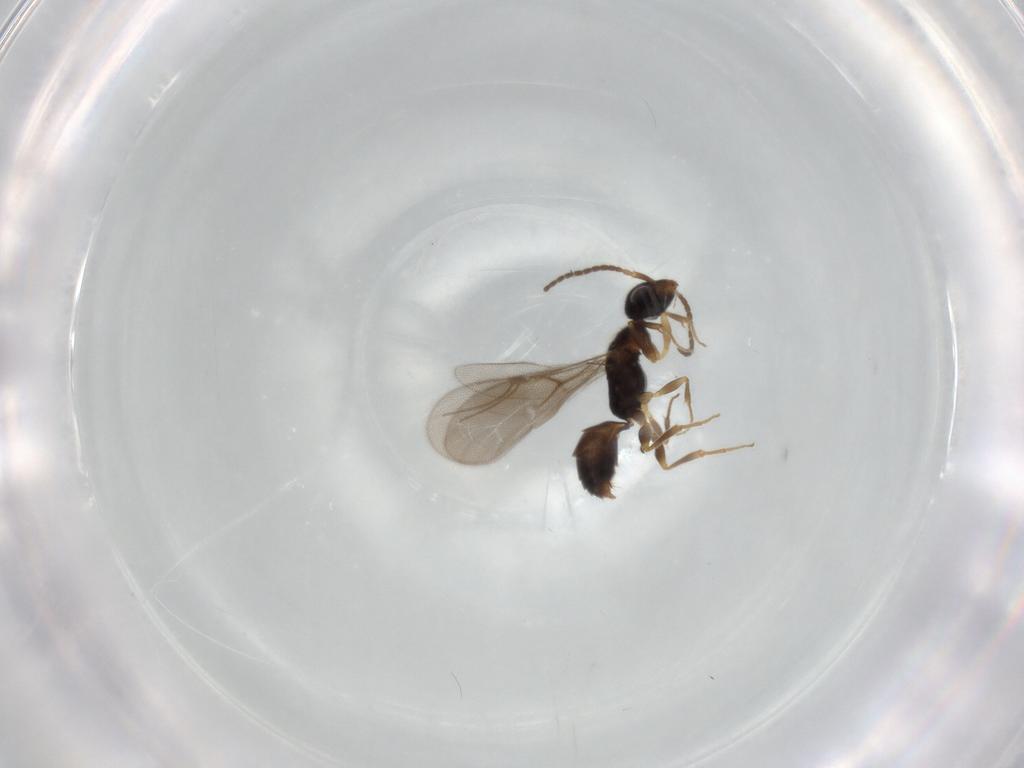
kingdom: Animalia
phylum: Arthropoda
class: Insecta
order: Hymenoptera
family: Bethylidae
